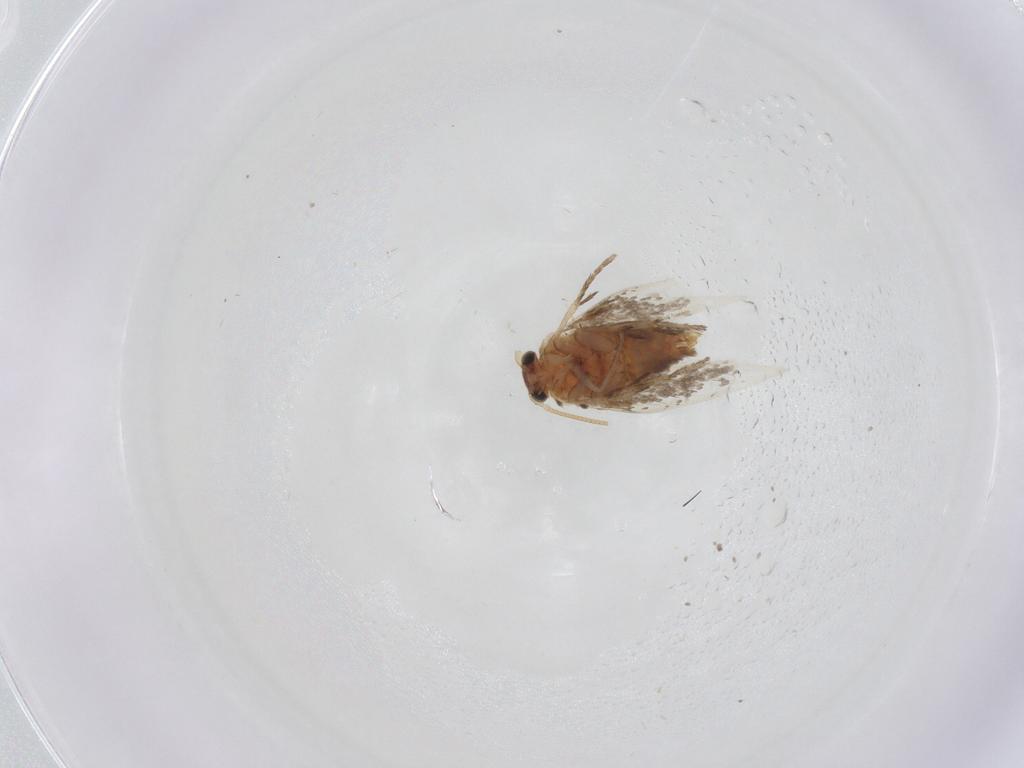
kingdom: Animalia
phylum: Arthropoda
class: Insecta
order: Lepidoptera
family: Nepticulidae
